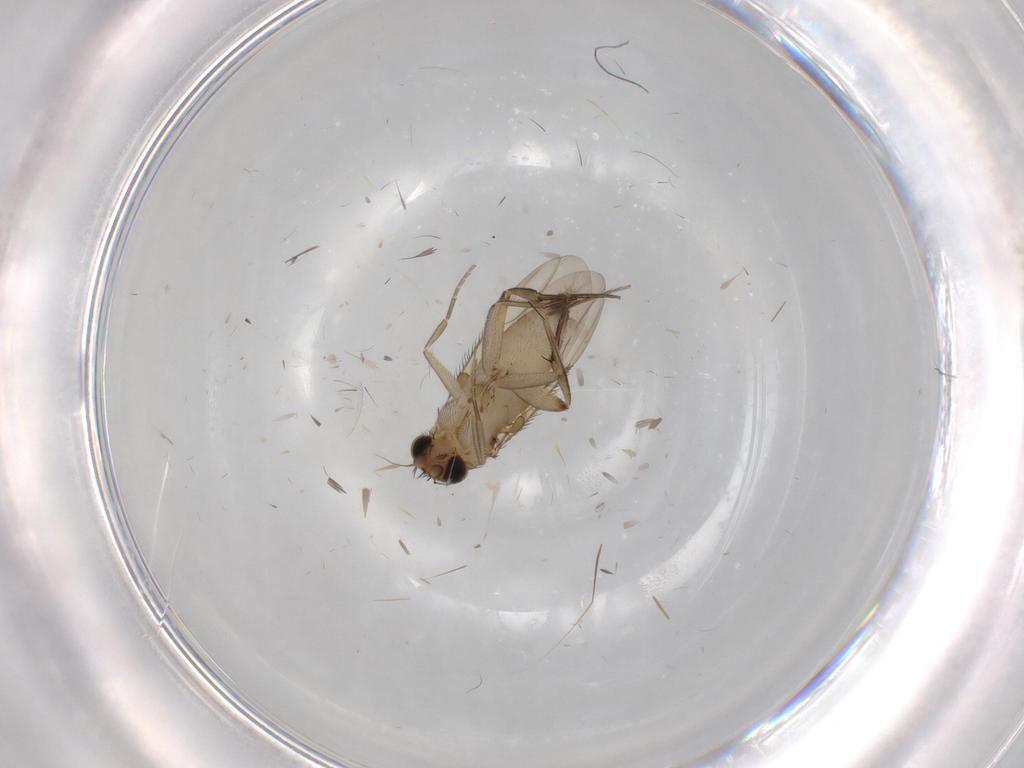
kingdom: Animalia
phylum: Arthropoda
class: Insecta
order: Diptera
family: Phoridae
